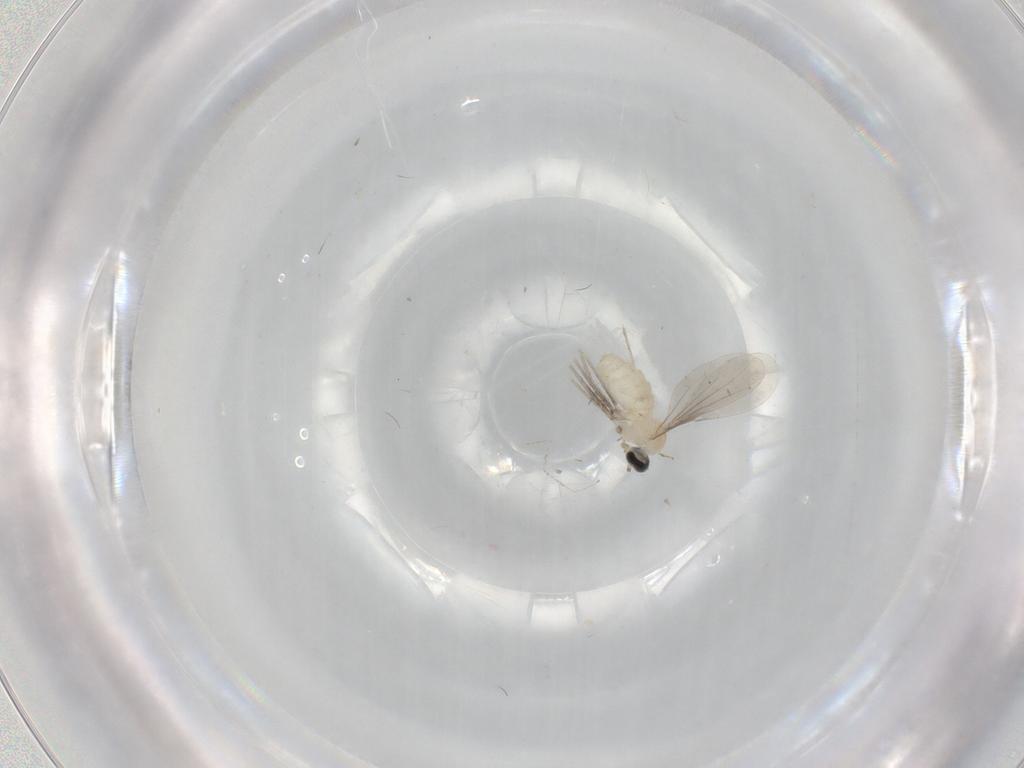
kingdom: Animalia
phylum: Arthropoda
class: Insecta
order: Diptera
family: Cecidomyiidae
